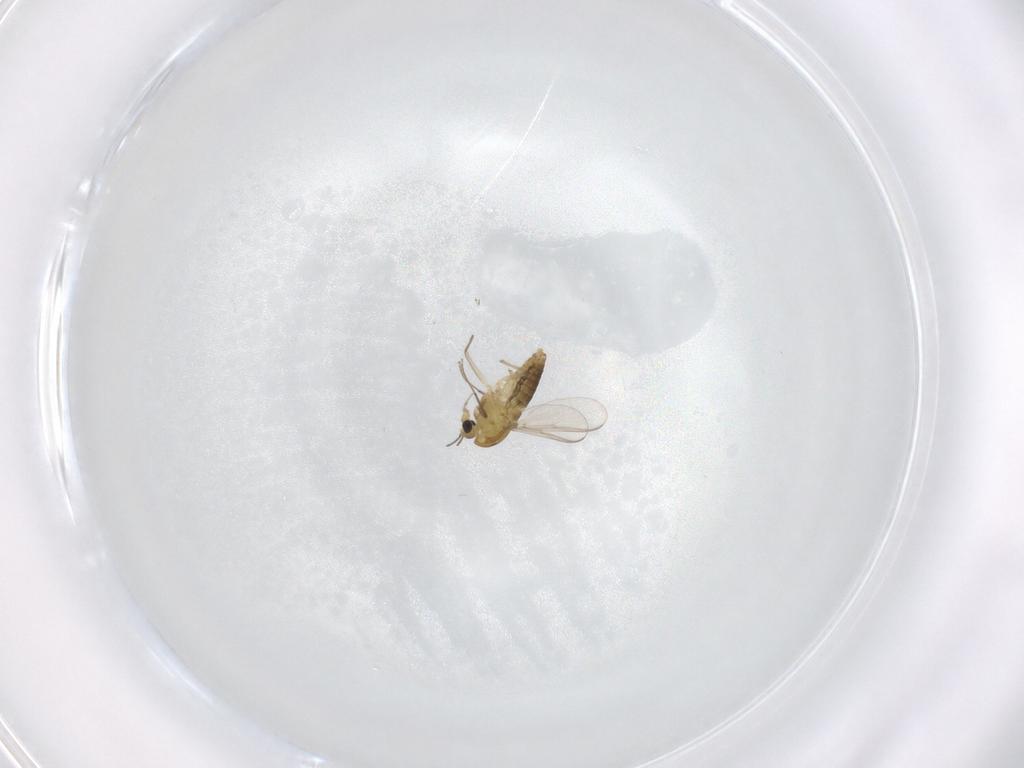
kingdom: Animalia
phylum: Arthropoda
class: Insecta
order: Diptera
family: Chironomidae
